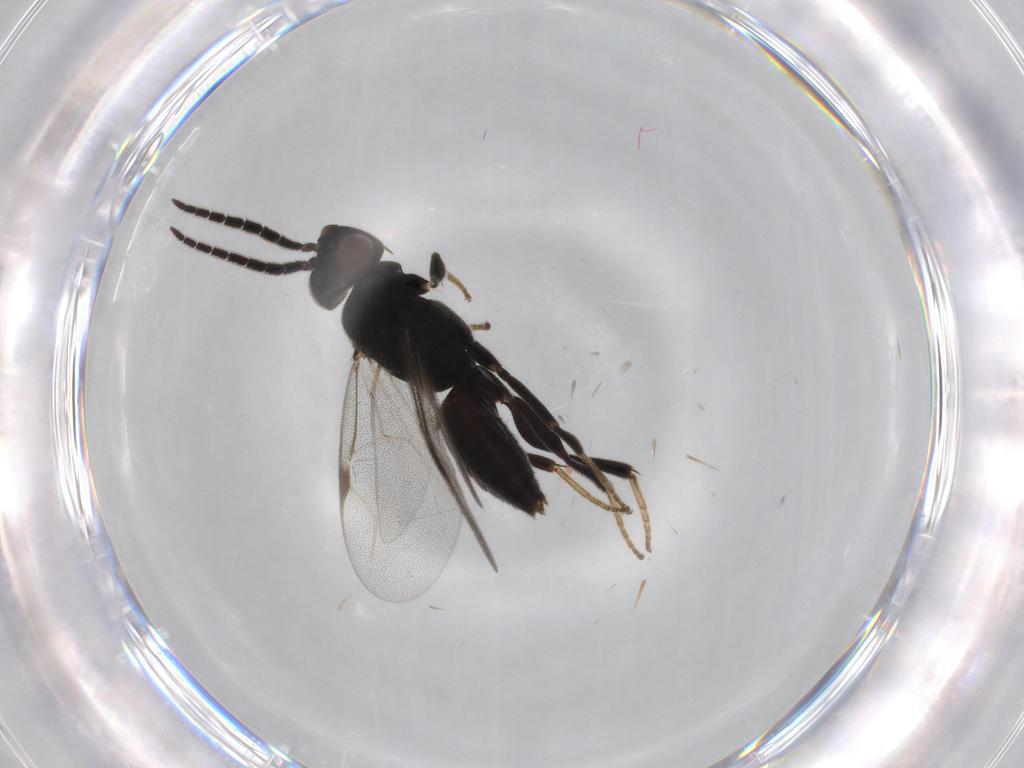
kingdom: Animalia
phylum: Arthropoda
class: Insecta
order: Hymenoptera
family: Dryinidae
